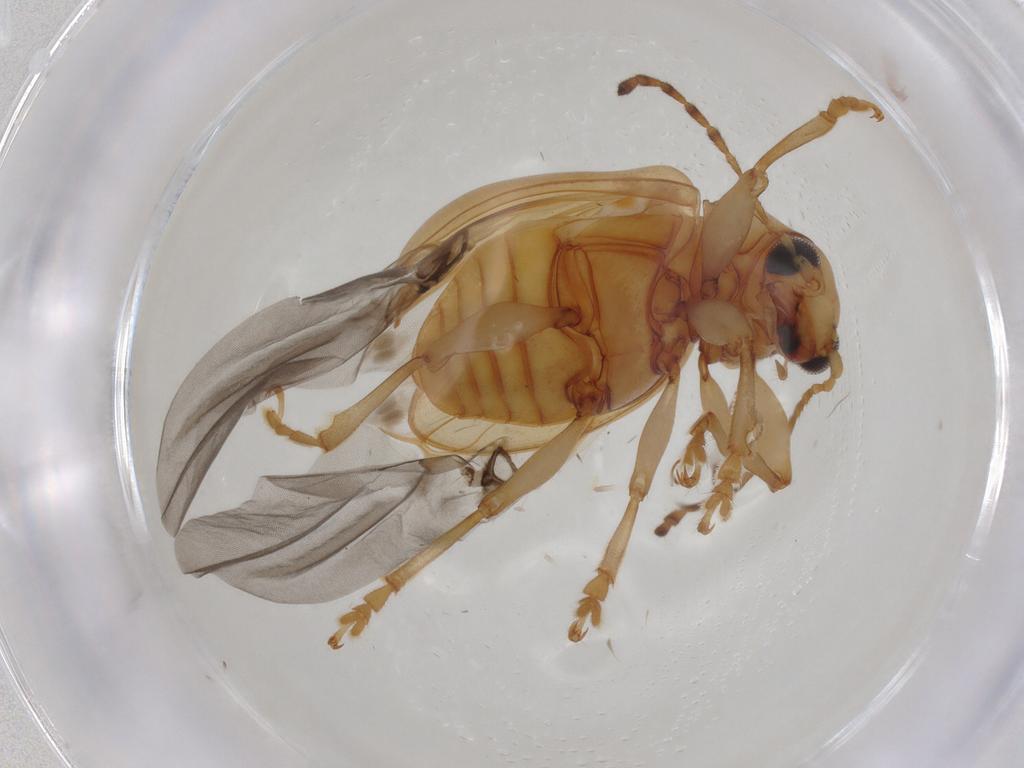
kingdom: Animalia
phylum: Arthropoda
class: Insecta
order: Coleoptera
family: Chrysomelidae
